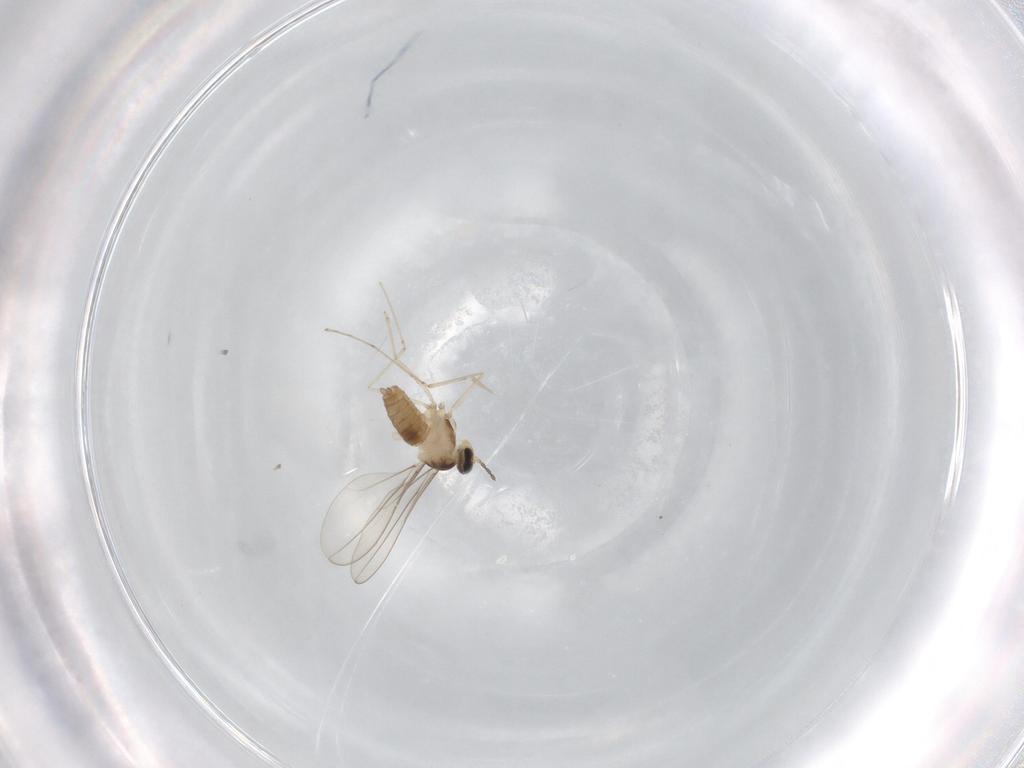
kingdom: Animalia
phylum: Arthropoda
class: Insecta
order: Diptera
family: Cecidomyiidae
